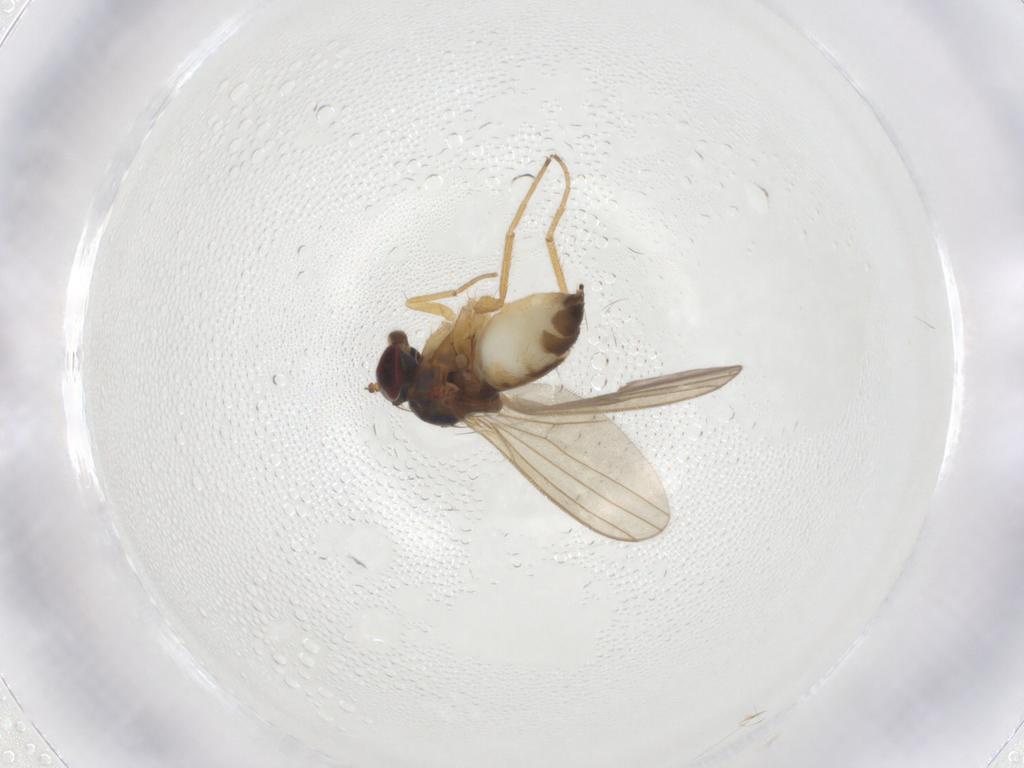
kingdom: Animalia
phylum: Arthropoda
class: Insecta
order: Diptera
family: Dolichopodidae
